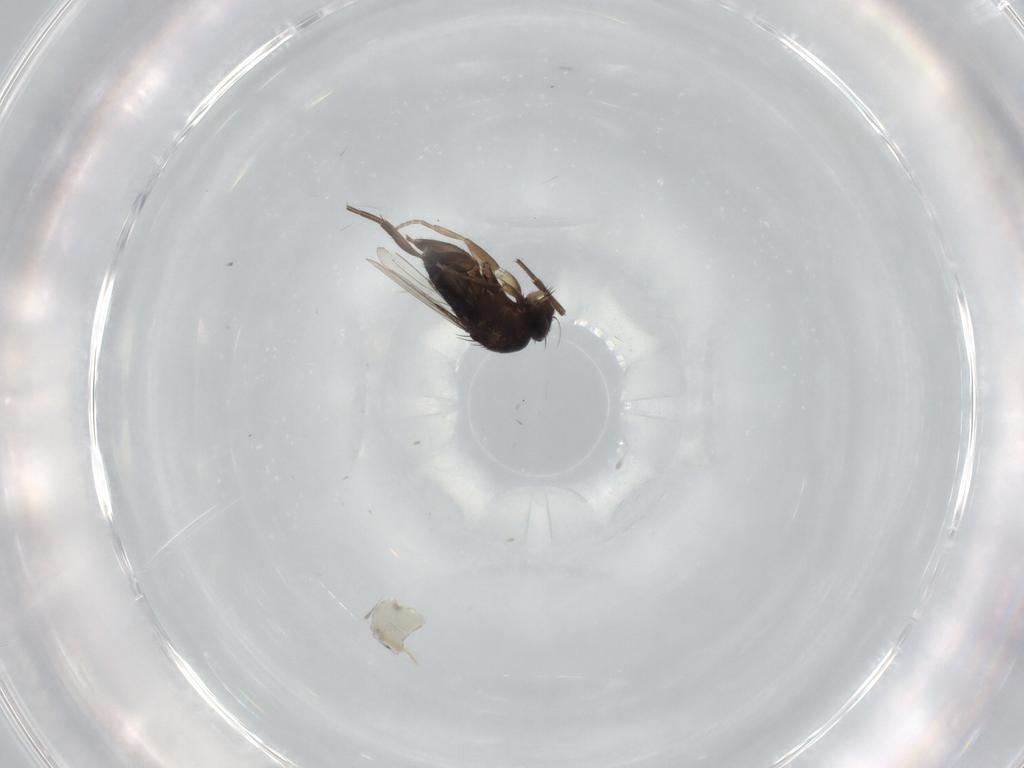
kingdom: Animalia
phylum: Arthropoda
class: Insecta
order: Diptera
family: Phoridae
